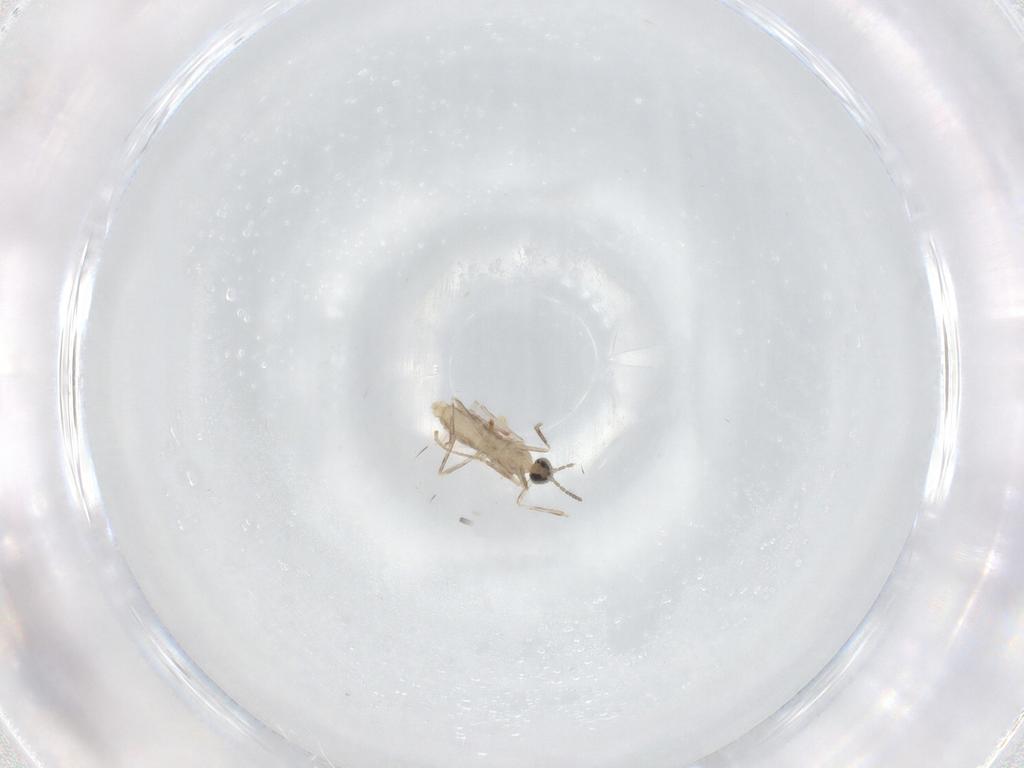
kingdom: Animalia
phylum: Arthropoda
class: Insecta
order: Diptera
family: Cecidomyiidae
